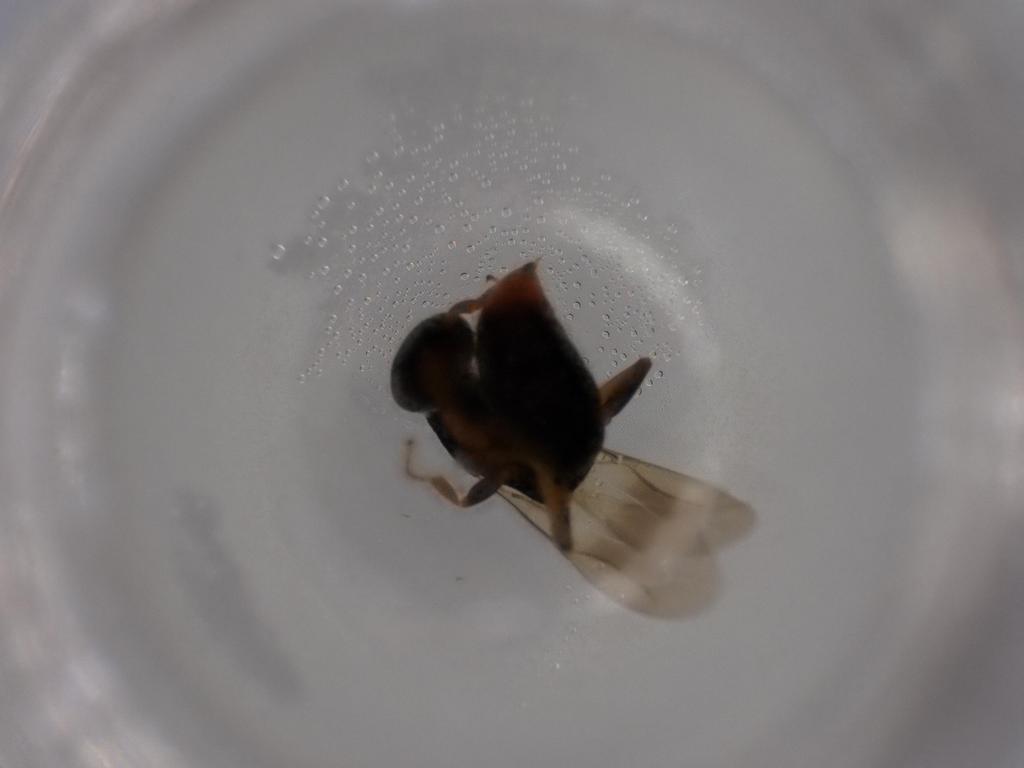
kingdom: Animalia
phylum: Arthropoda
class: Insecta
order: Hymenoptera
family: Bethylidae
